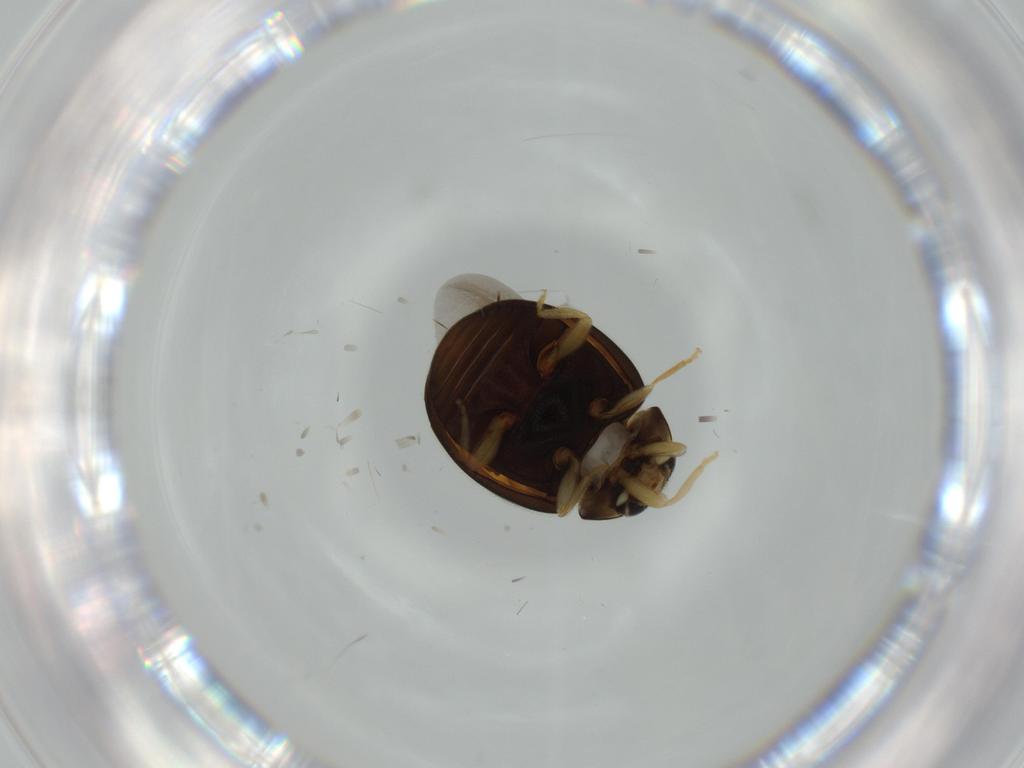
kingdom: Animalia
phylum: Arthropoda
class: Insecta
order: Coleoptera
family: Coccinellidae
